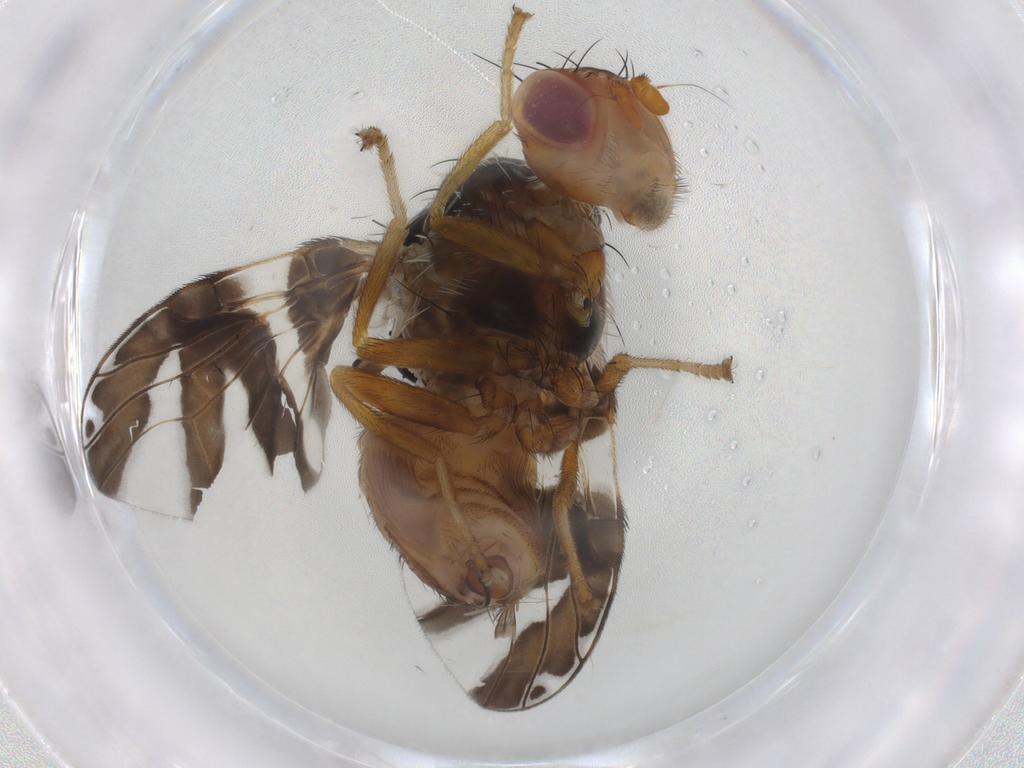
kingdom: Animalia
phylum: Arthropoda
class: Insecta
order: Diptera
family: Tephritidae
